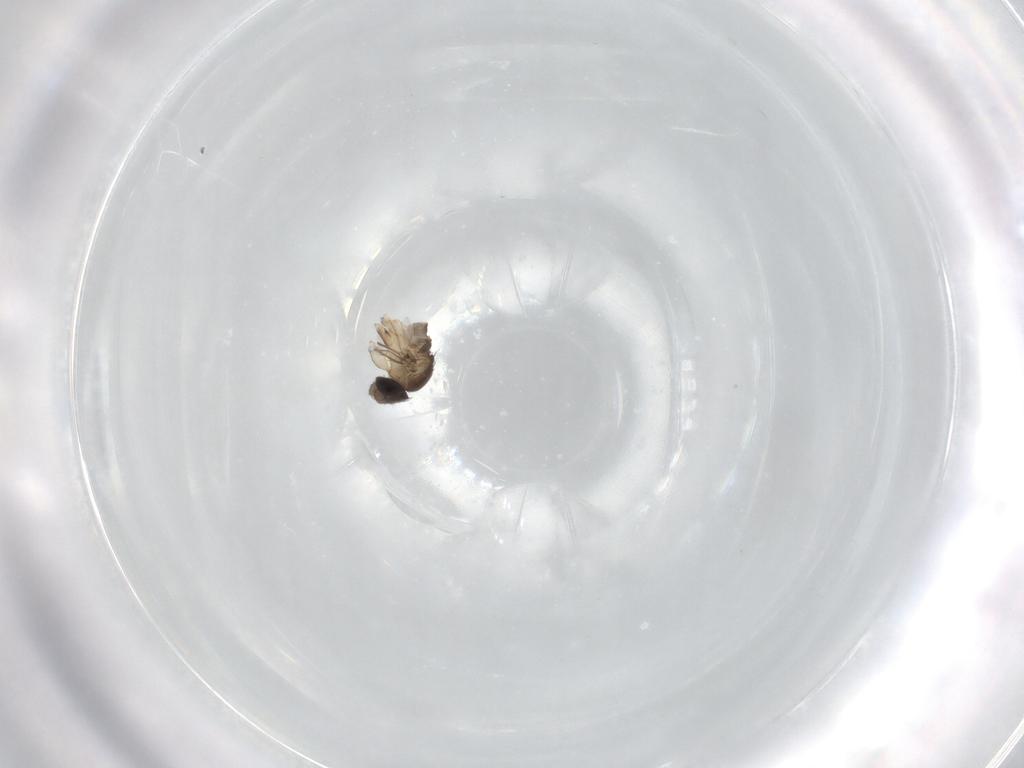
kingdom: Animalia
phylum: Arthropoda
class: Insecta
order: Diptera
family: Phoridae
